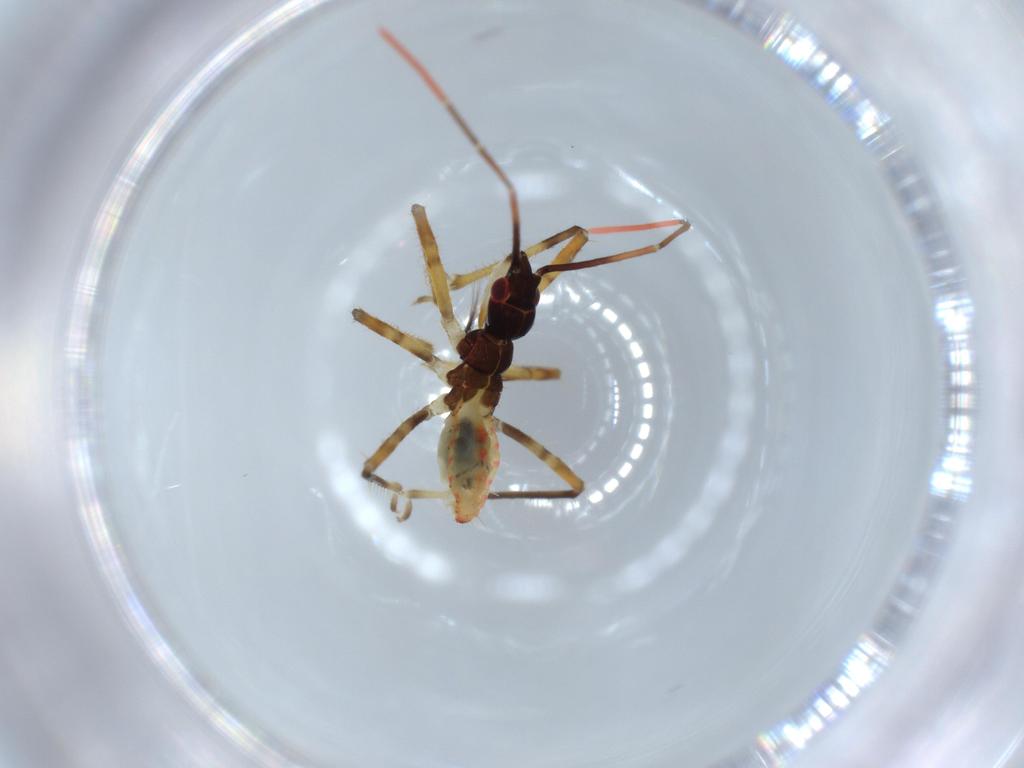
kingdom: Animalia
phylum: Arthropoda
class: Insecta
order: Hemiptera
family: Reduviidae
